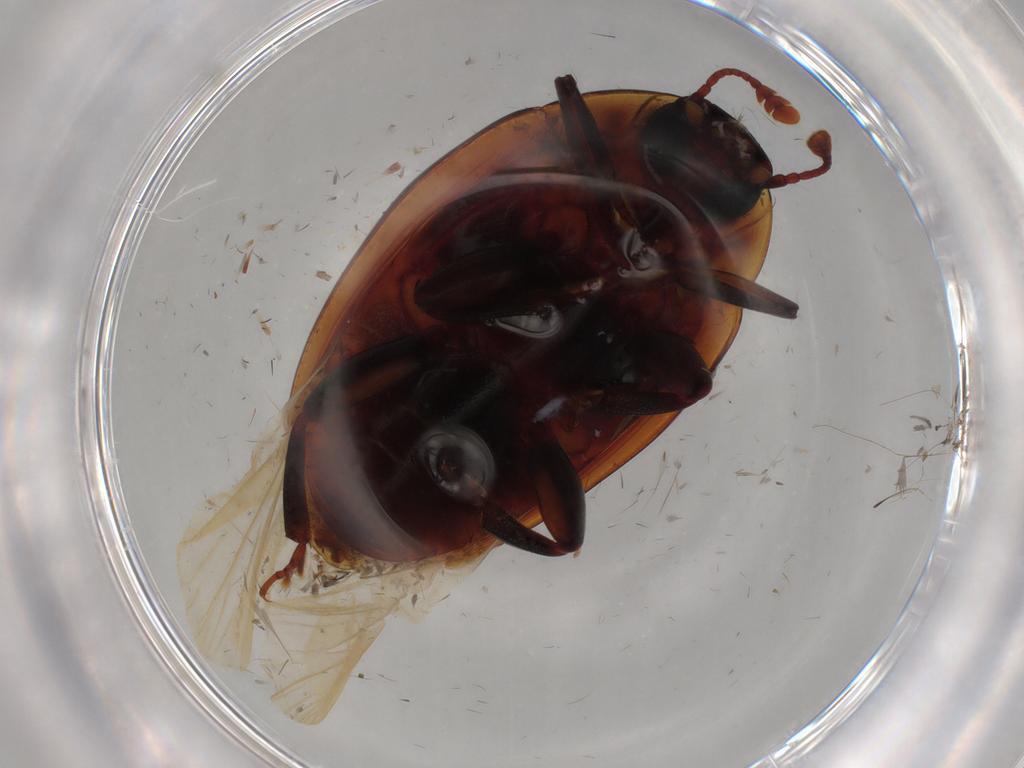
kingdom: Animalia
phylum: Arthropoda
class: Insecta
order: Coleoptera
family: Zopheridae
